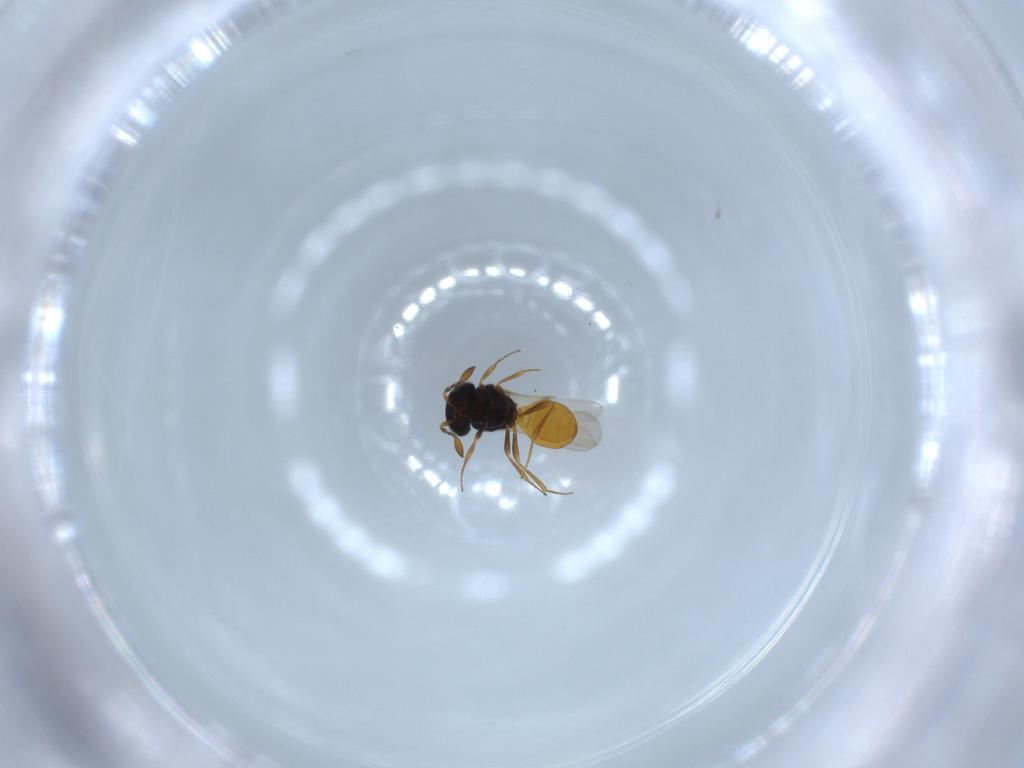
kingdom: Animalia
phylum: Arthropoda
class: Insecta
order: Hymenoptera
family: Scelionidae
